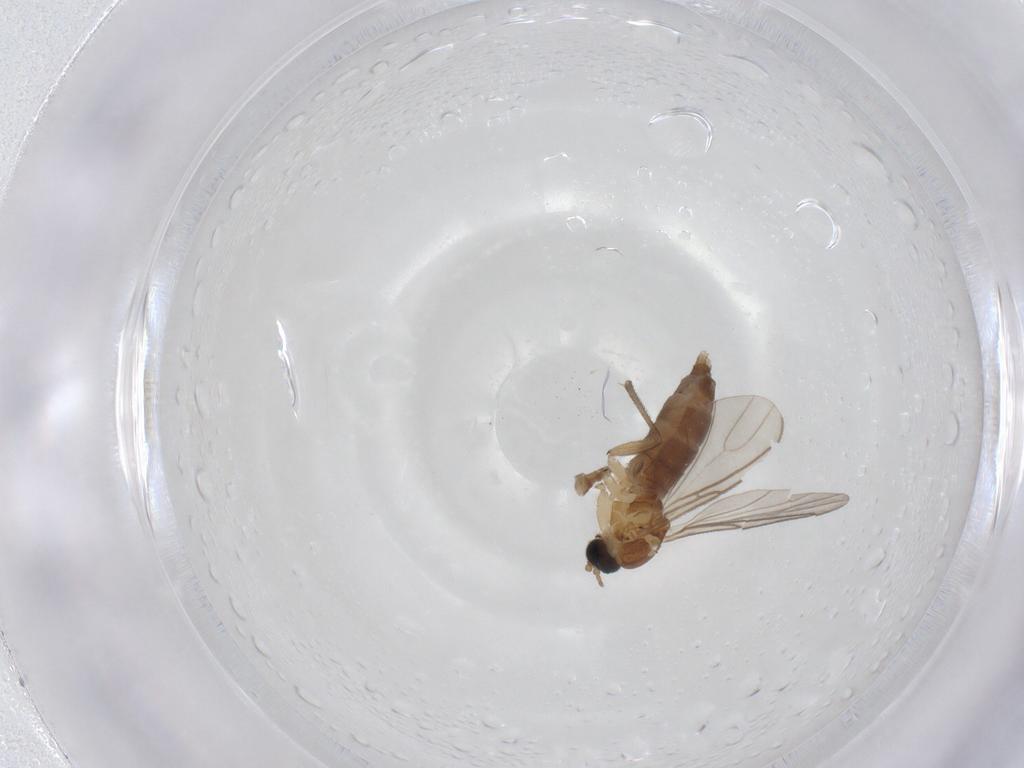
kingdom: Animalia
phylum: Arthropoda
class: Insecta
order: Diptera
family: Sciaridae
